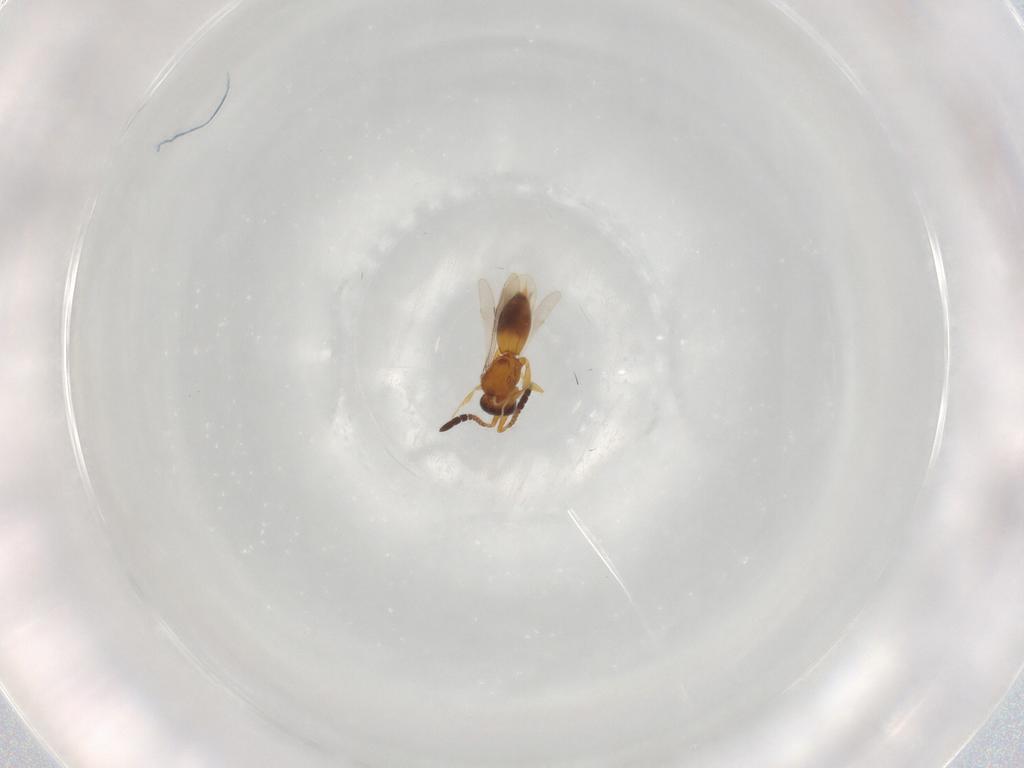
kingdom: Animalia
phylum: Arthropoda
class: Insecta
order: Hymenoptera
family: Ceraphronidae
